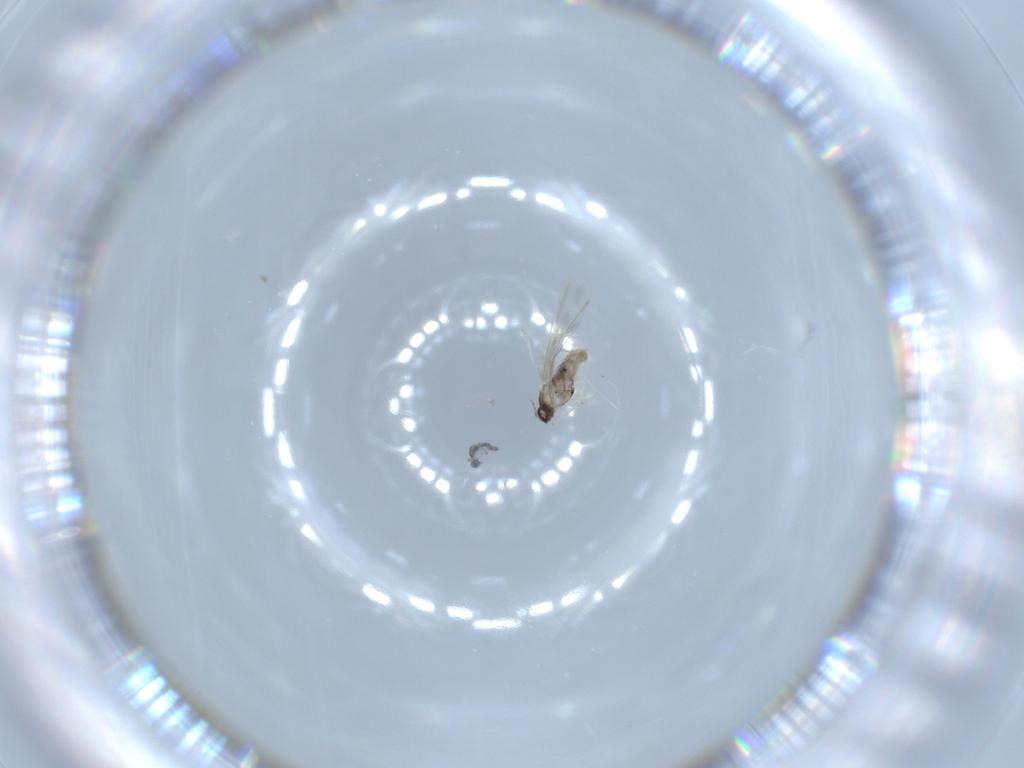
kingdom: Animalia
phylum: Arthropoda
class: Insecta
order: Diptera
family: Cecidomyiidae
